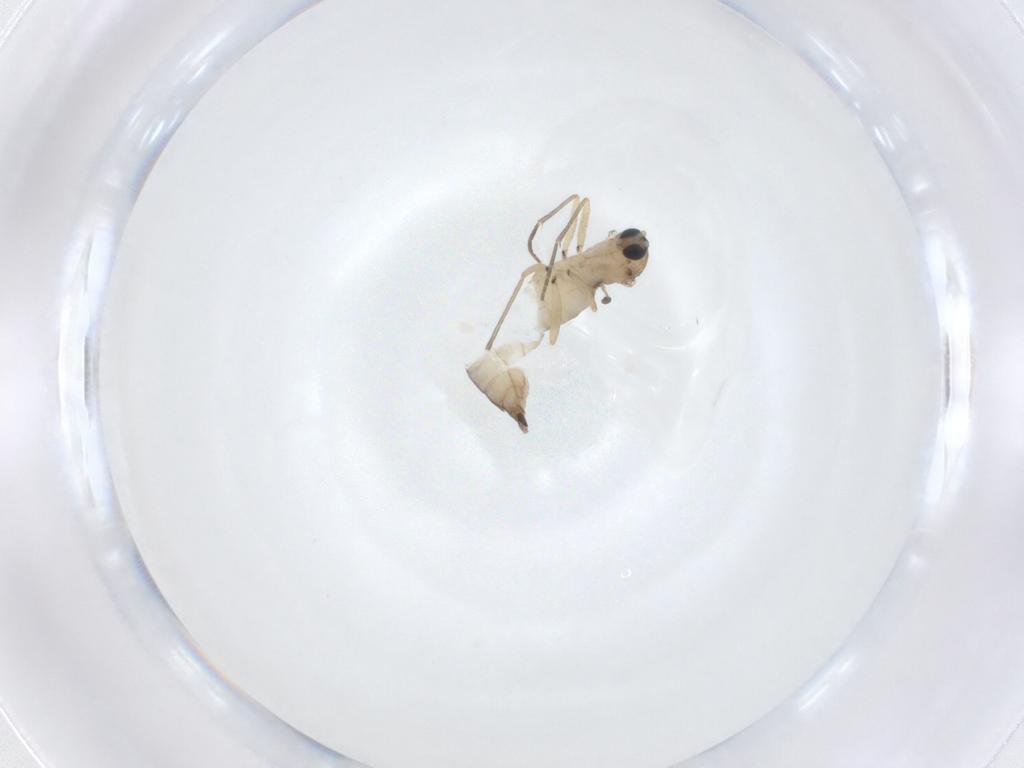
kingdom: Animalia
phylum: Arthropoda
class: Insecta
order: Diptera
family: Sciaridae
